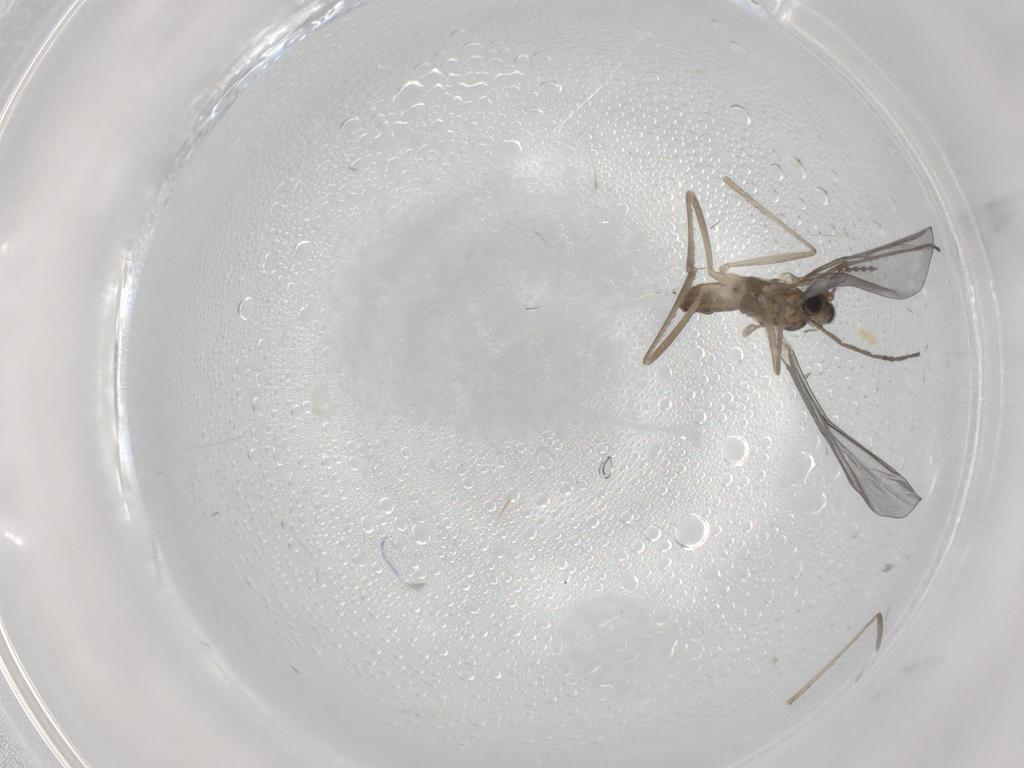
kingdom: Animalia
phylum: Arthropoda
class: Insecta
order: Diptera
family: Cecidomyiidae
